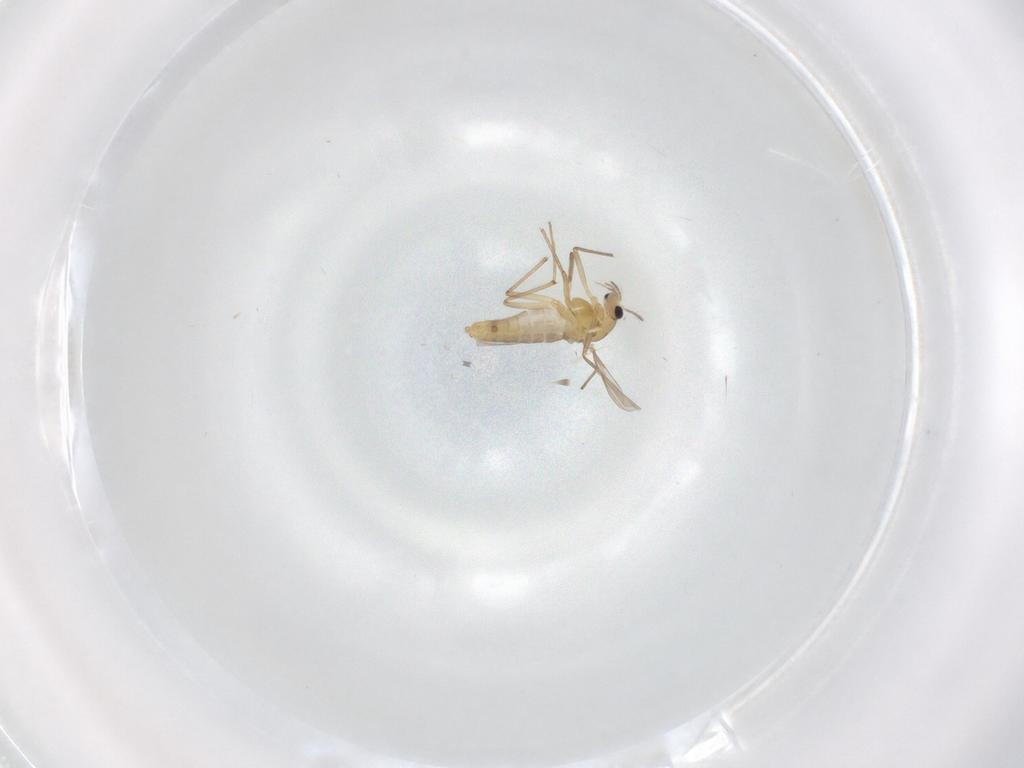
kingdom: Animalia
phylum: Arthropoda
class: Insecta
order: Diptera
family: Chironomidae
